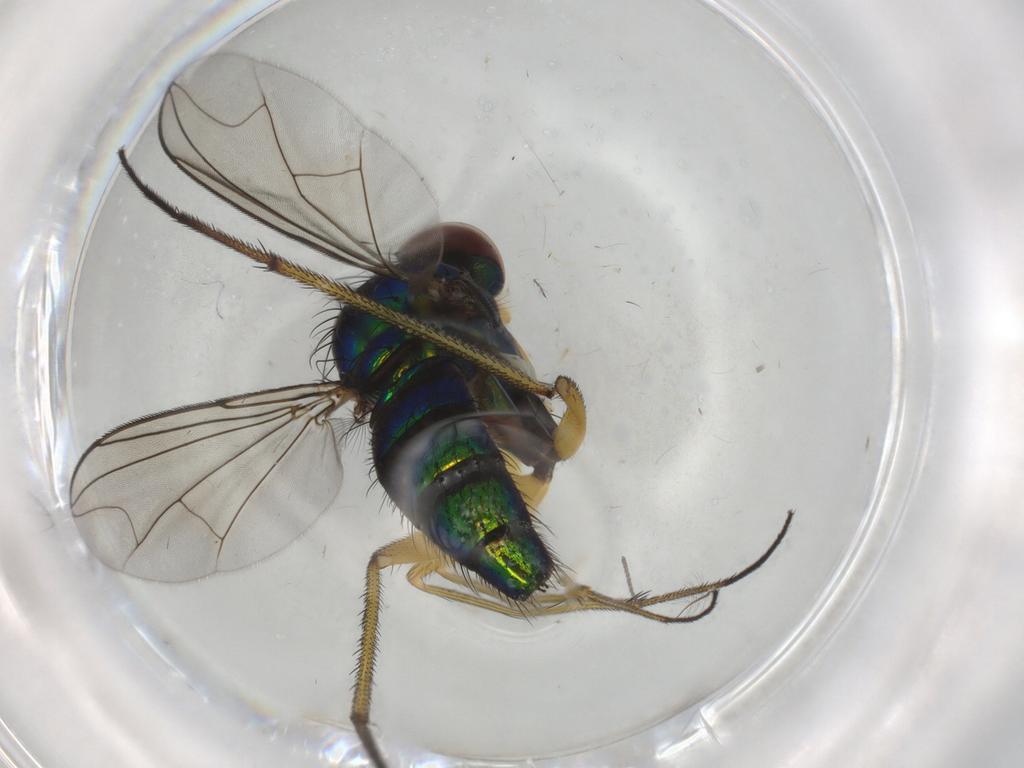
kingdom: Animalia
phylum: Arthropoda
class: Insecta
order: Diptera
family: Dolichopodidae
